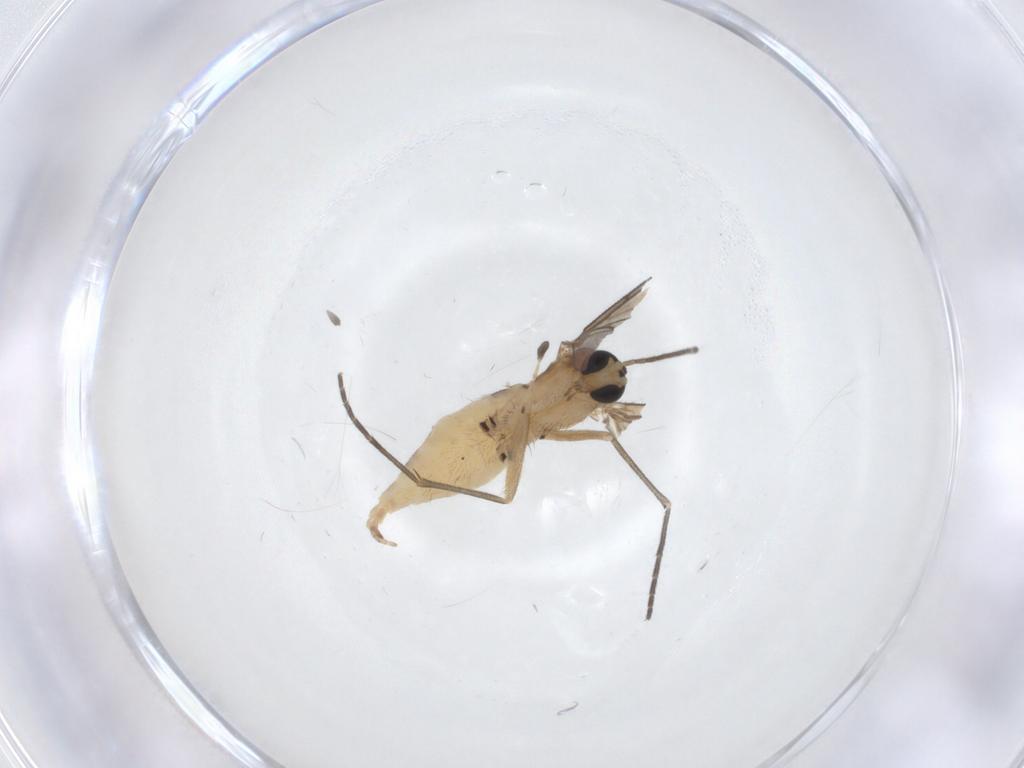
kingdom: Animalia
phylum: Arthropoda
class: Insecta
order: Diptera
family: Sciaridae
